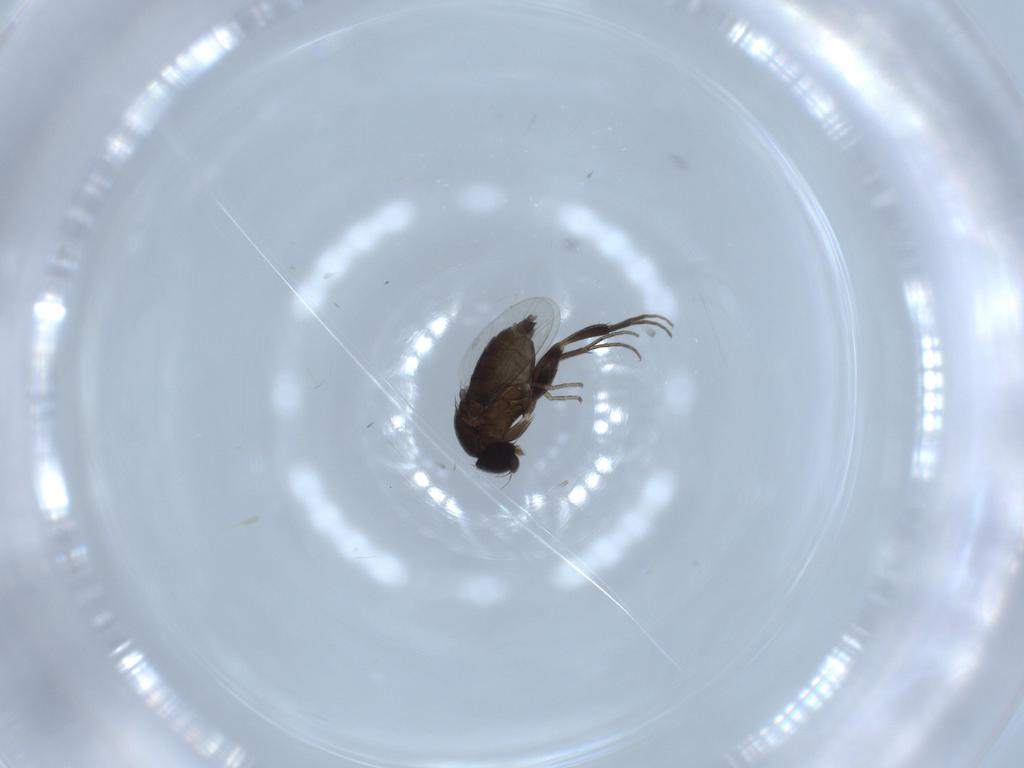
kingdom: Animalia
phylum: Arthropoda
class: Insecta
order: Diptera
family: Phoridae
